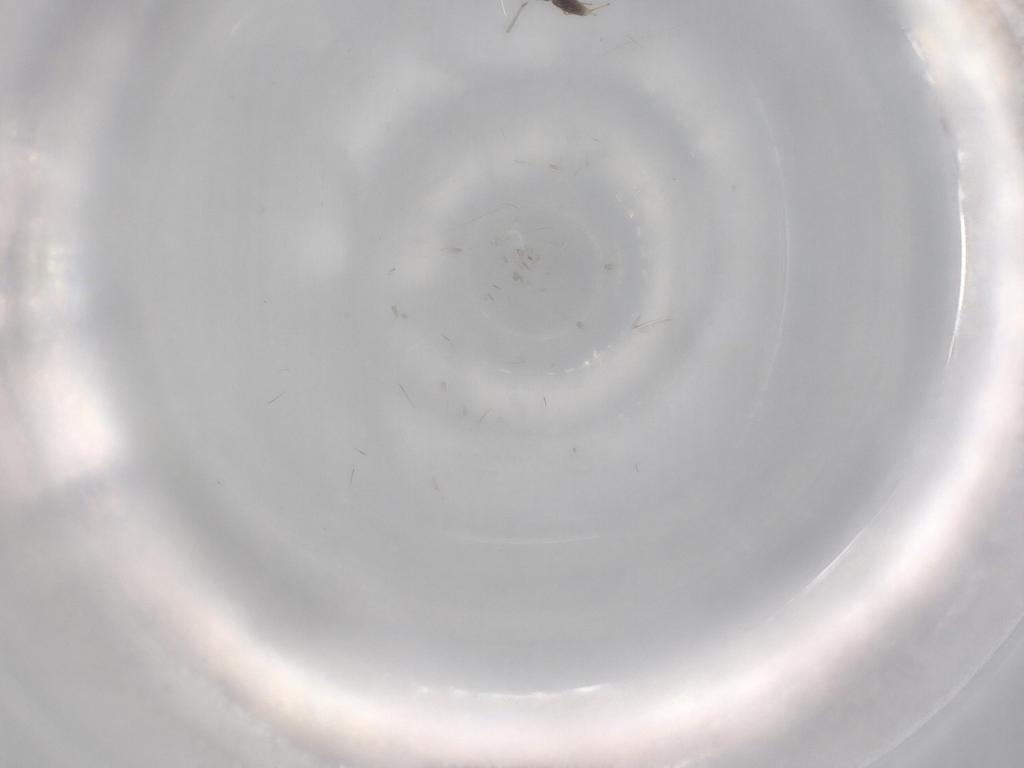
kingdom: Animalia
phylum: Arthropoda
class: Insecta
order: Hymenoptera
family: Mymaridae
